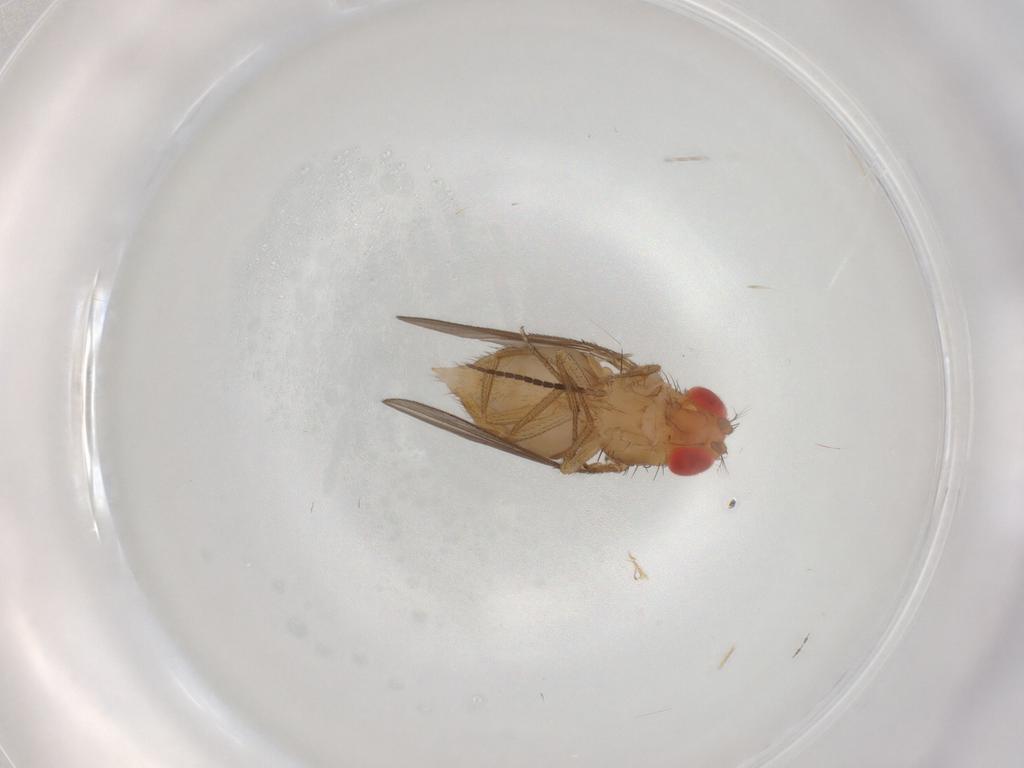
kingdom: Animalia
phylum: Arthropoda
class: Insecta
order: Diptera
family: Drosophilidae
